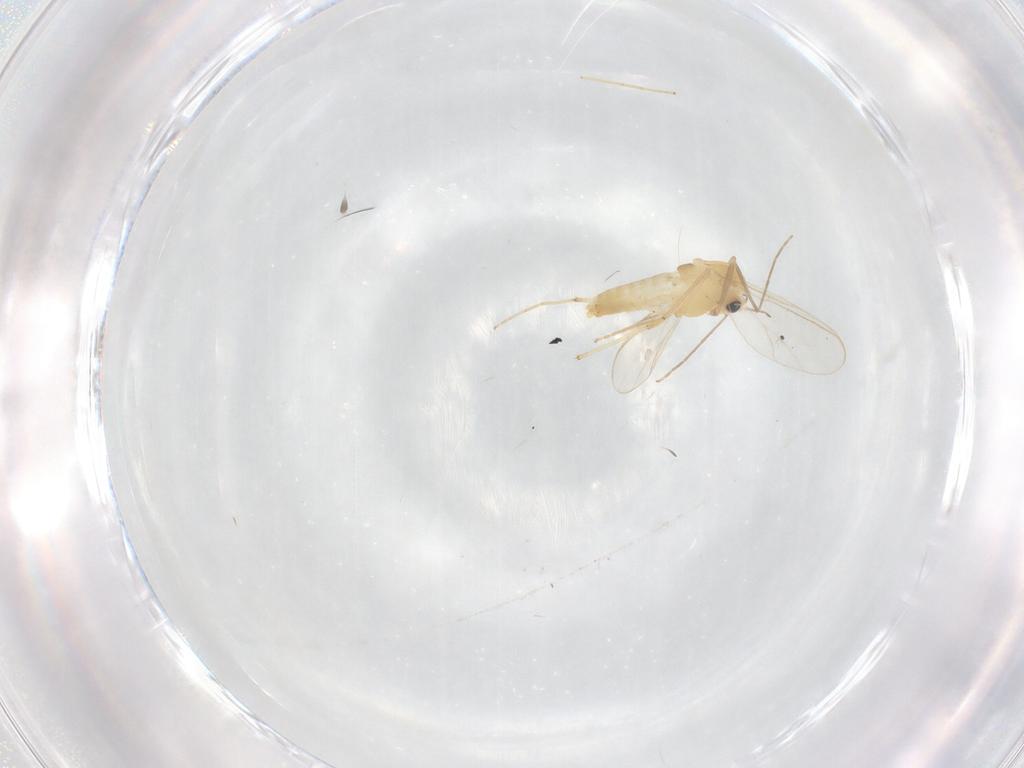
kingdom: Animalia
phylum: Arthropoda
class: Insecta
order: Diptera
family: Chironomidae
